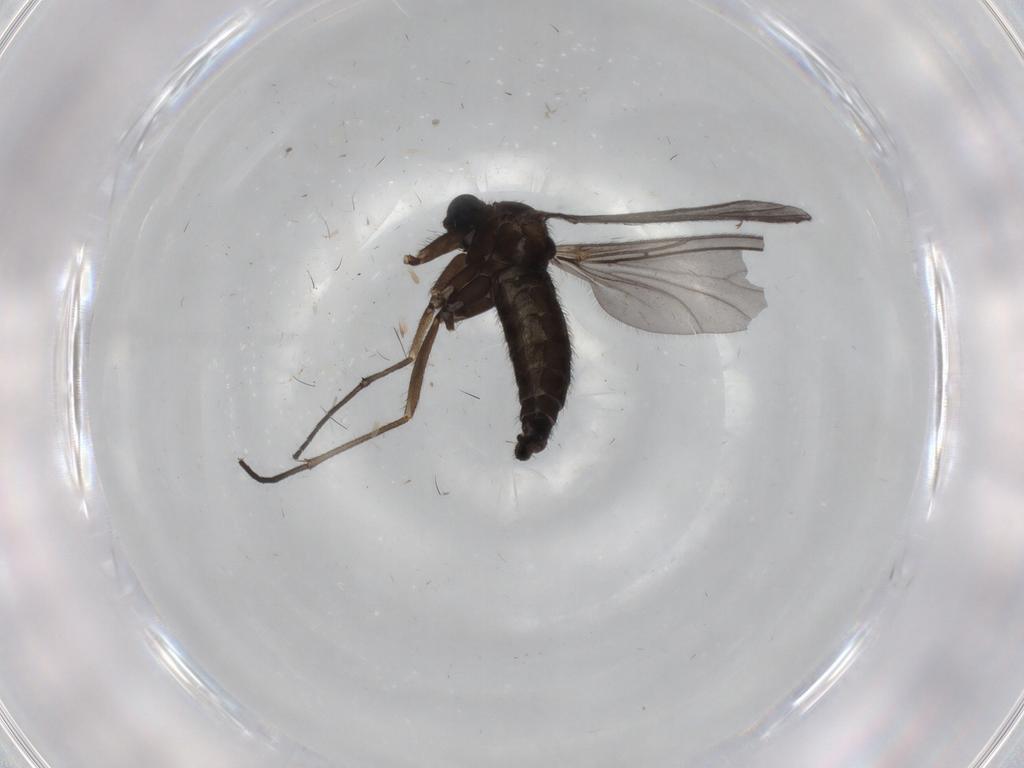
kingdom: Animalia
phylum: Arthropoda
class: Insecta
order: Diptera
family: Sciaridae
